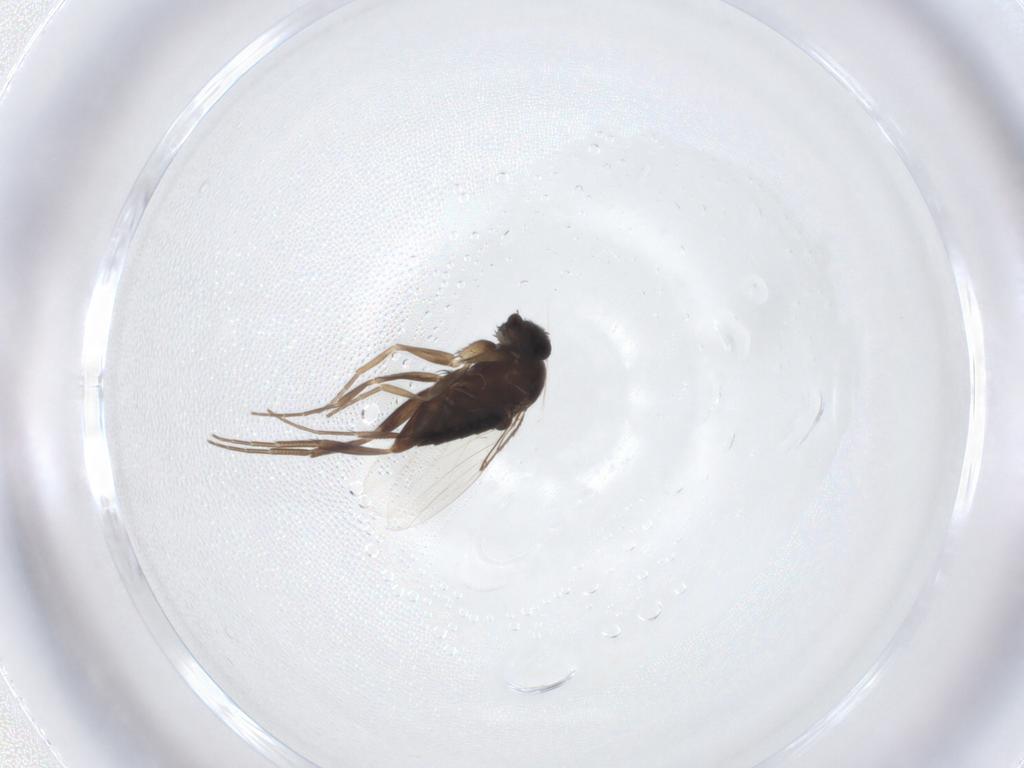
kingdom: Animalia
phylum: Arthropoda
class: Insecta
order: Diptera
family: Phoridae
